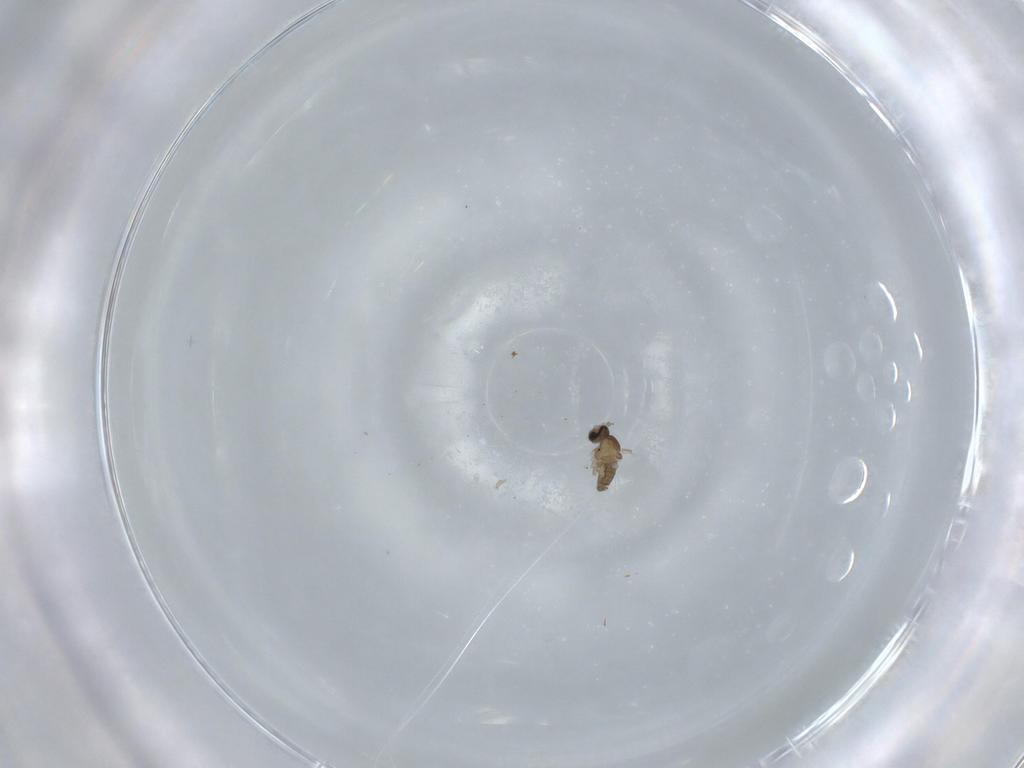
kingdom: Animalia
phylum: Arthropoda
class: Insecta
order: Diptera
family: Cecidomyiidae
